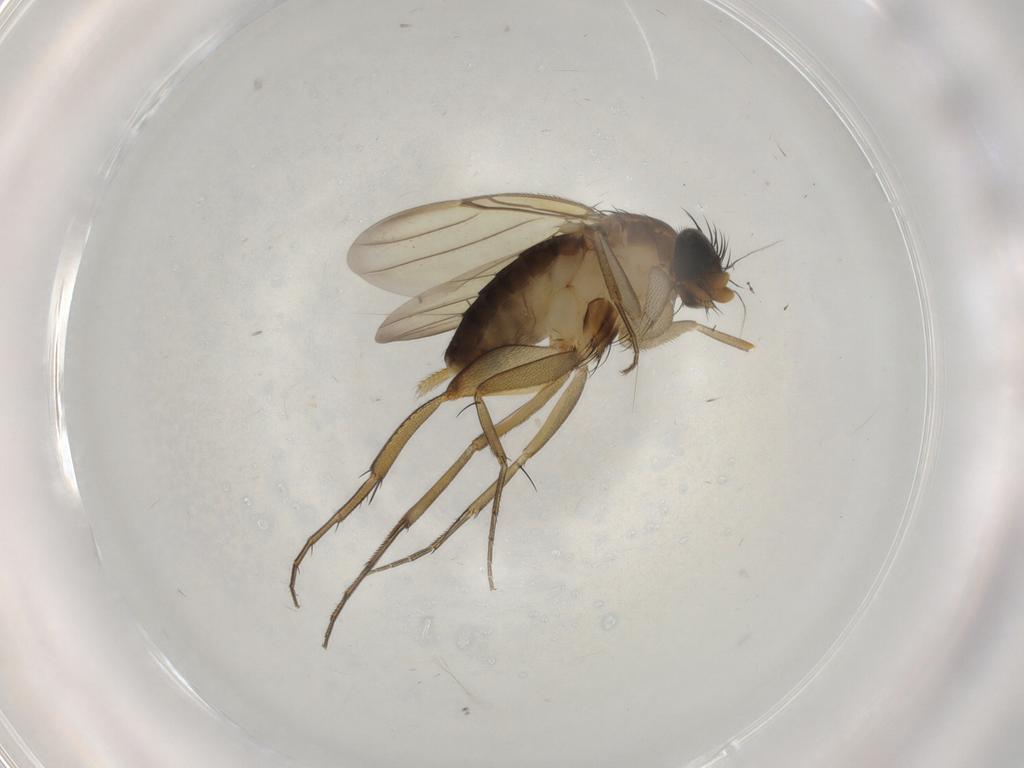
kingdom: Animalia
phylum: Arthropoda
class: Insecta
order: Diptera
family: Phoridae
